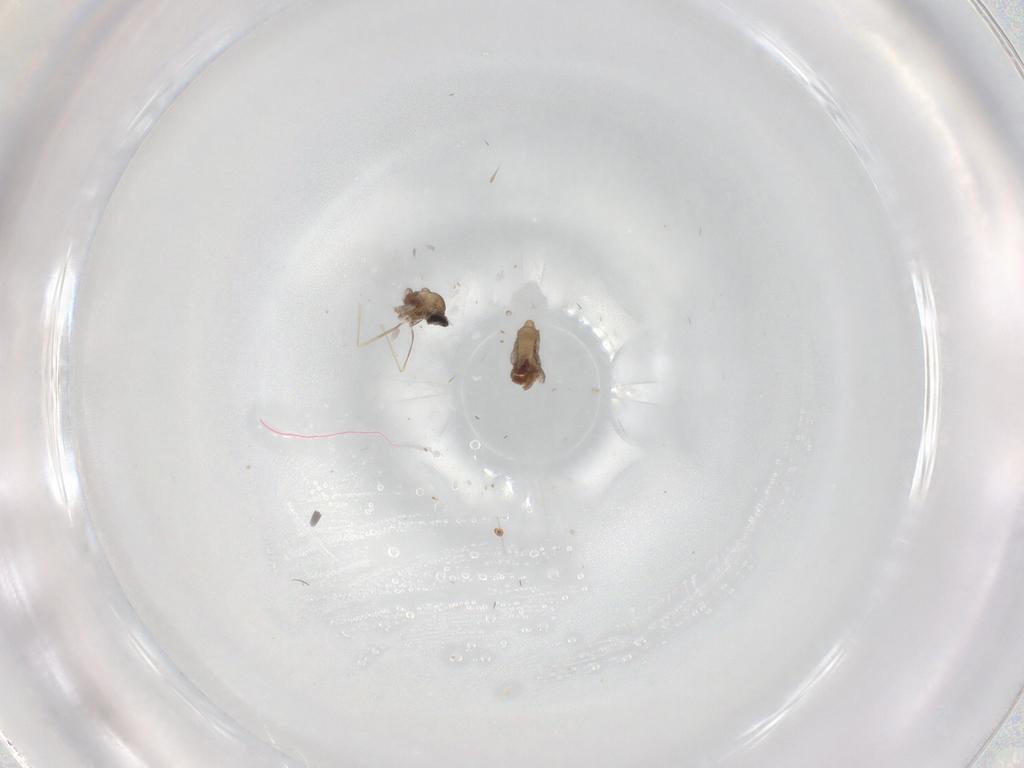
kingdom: Animalia
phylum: Arthropoda
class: Insecta
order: Diptera
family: Cecidomyiidae
